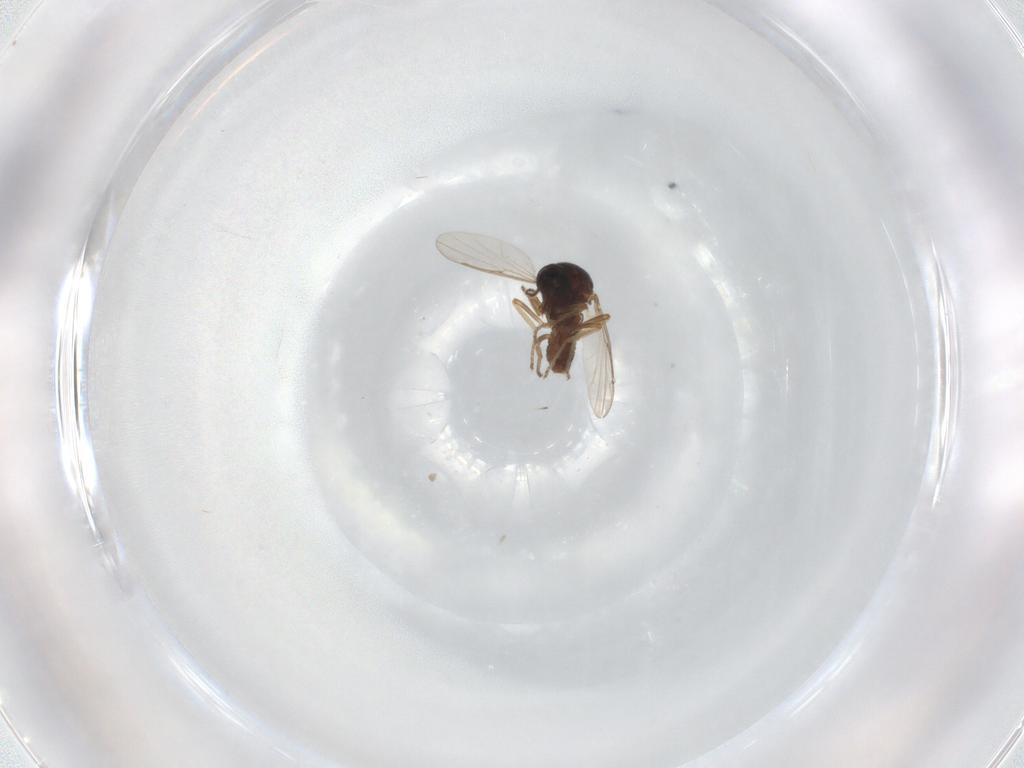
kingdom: Animalia
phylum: Arthropoda
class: Insecta
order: Diptera
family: Ceratopogonidae
